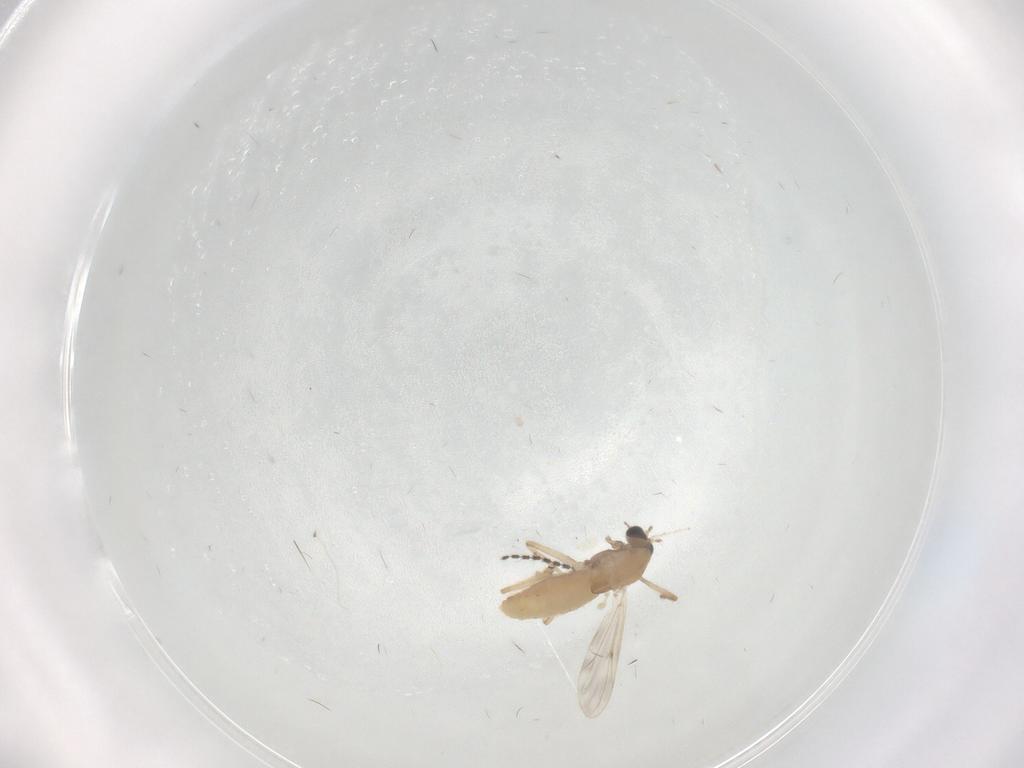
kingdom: Animalia
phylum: Arthropoda
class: Insecta
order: Diptera
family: Chironomidae
